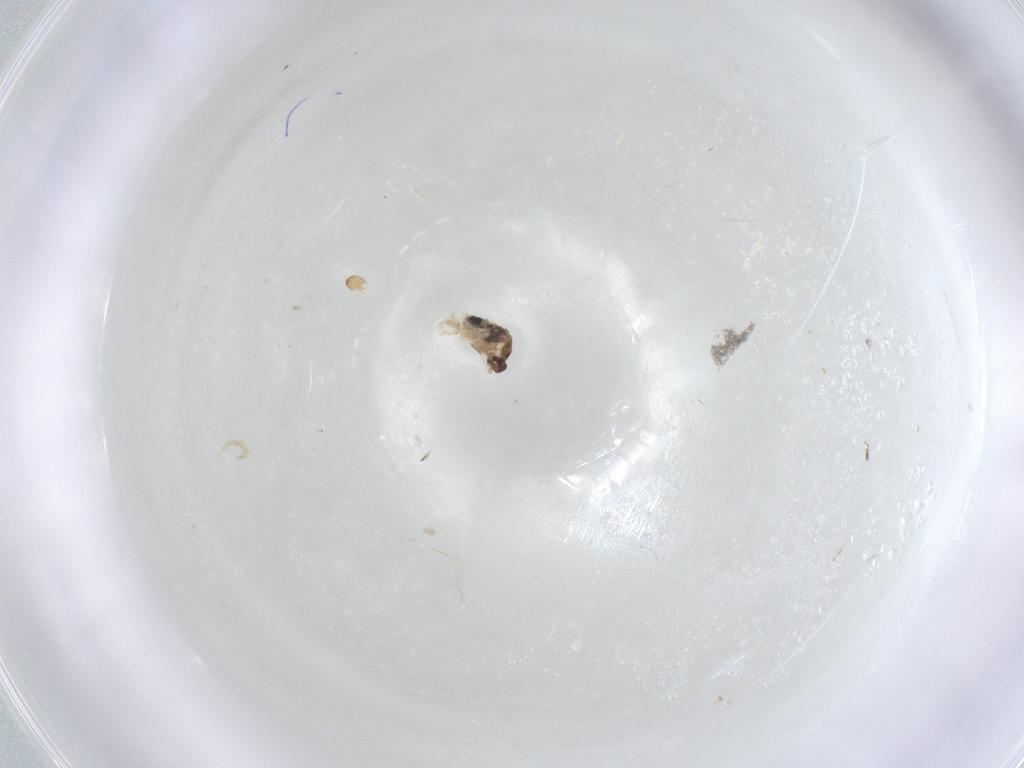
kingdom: Animalia
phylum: Arthropoda
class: Insecta
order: Diptera
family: Cecidomyiidae
